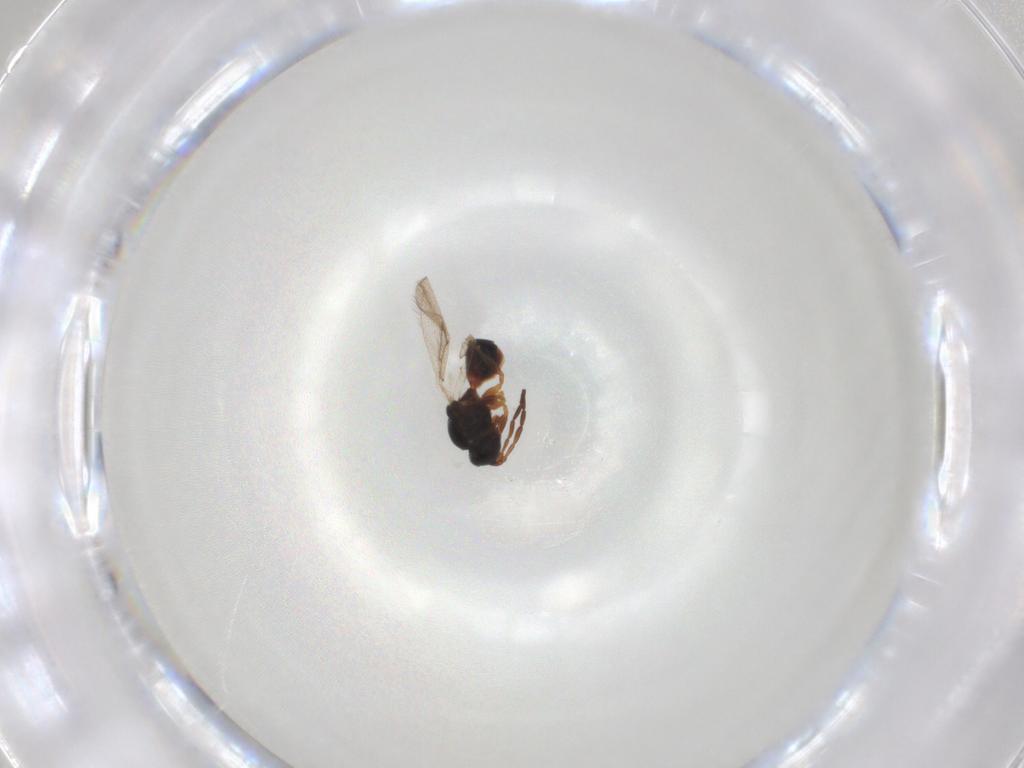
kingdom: Animalia
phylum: Arthropoda
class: Insecta
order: Hymenoptera
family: Apidae
